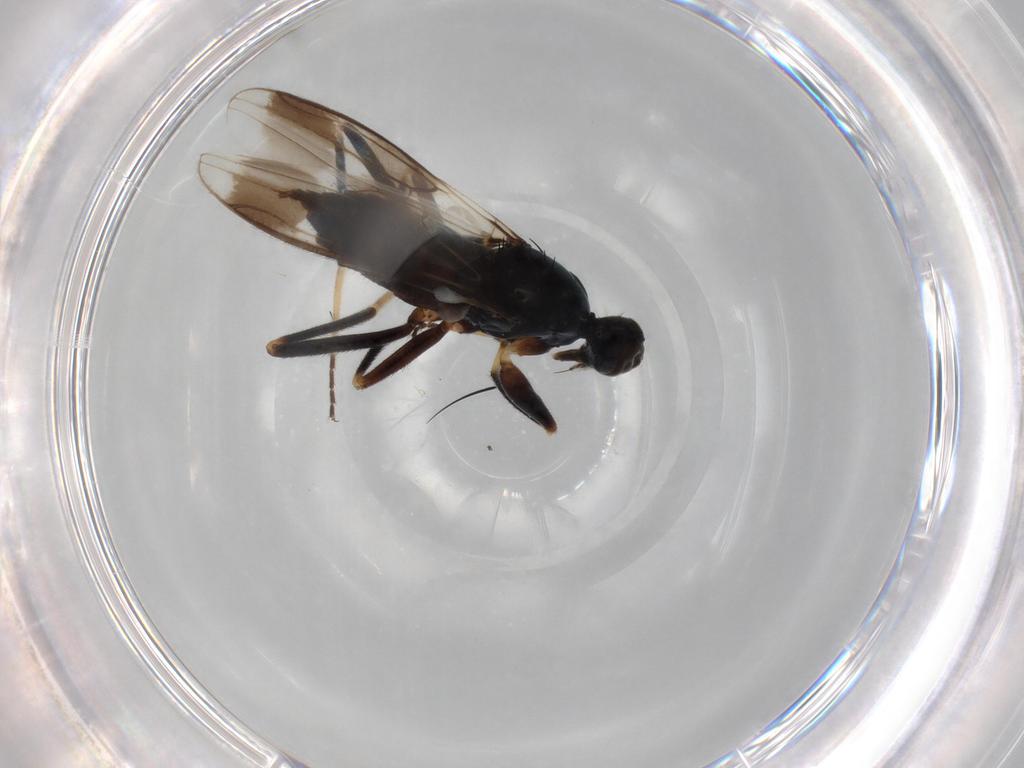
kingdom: Animalia
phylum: Arthropoda
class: Insecta
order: Diptera
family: Hybotidae
